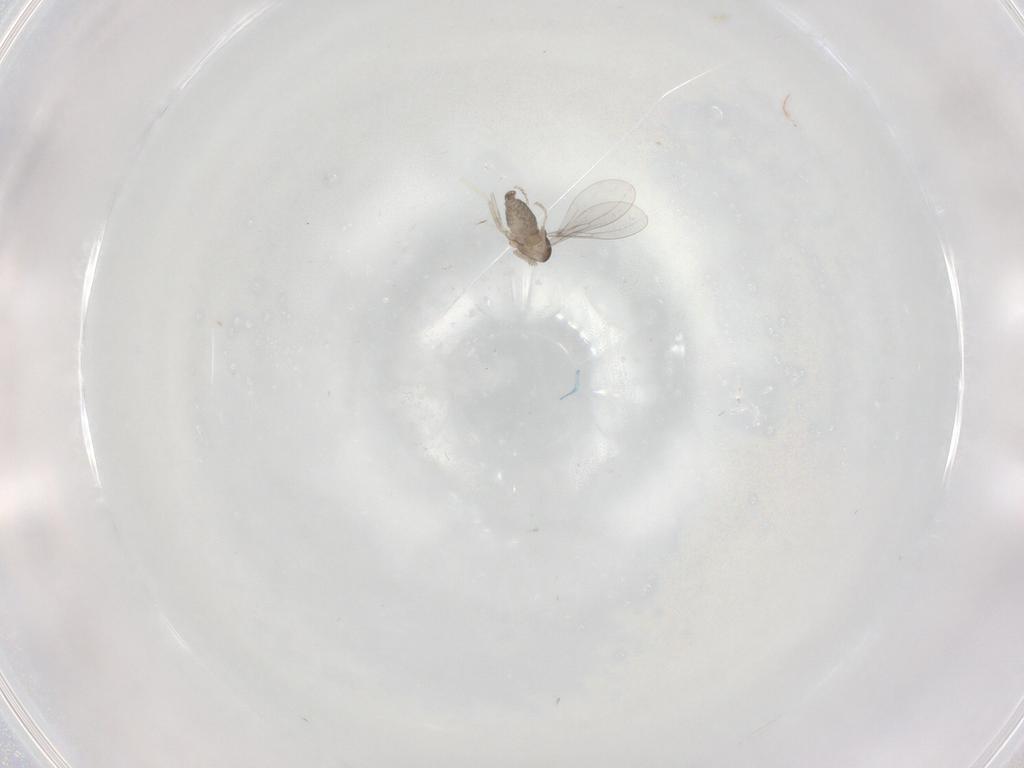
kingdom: Animalia
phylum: Arthropoda
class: Insecta
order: Diptera
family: Cecidomyiidae
